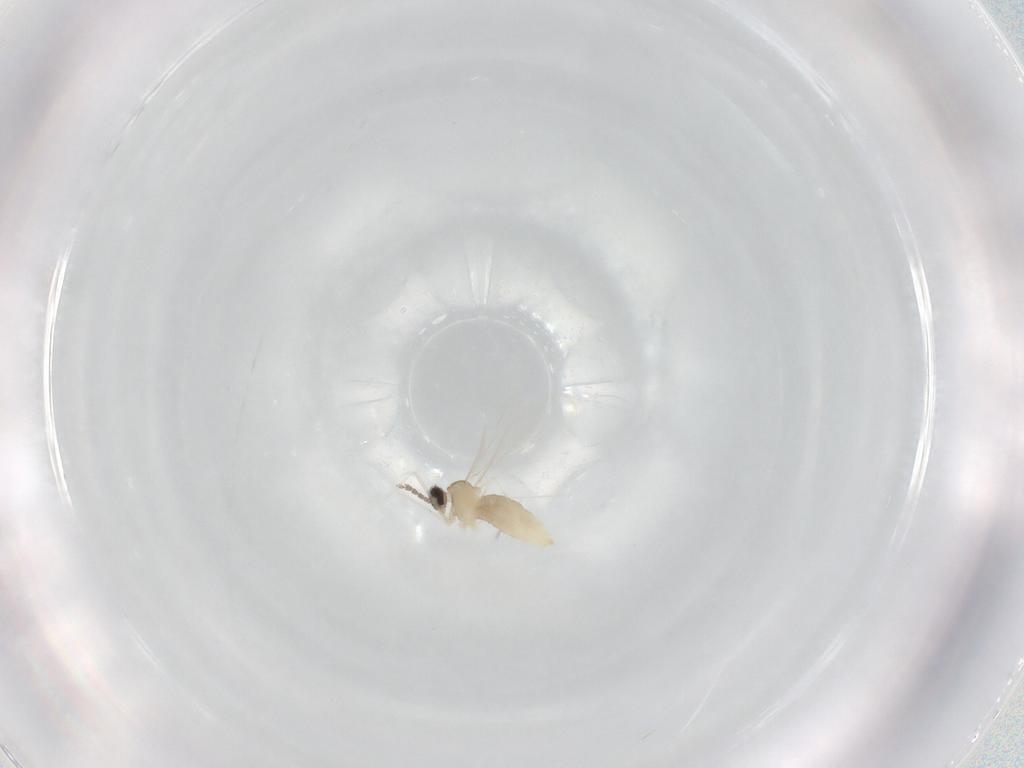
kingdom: Animalia
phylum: Arthropoda
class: Insecta
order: Diptera
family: Cecidomyiidae
